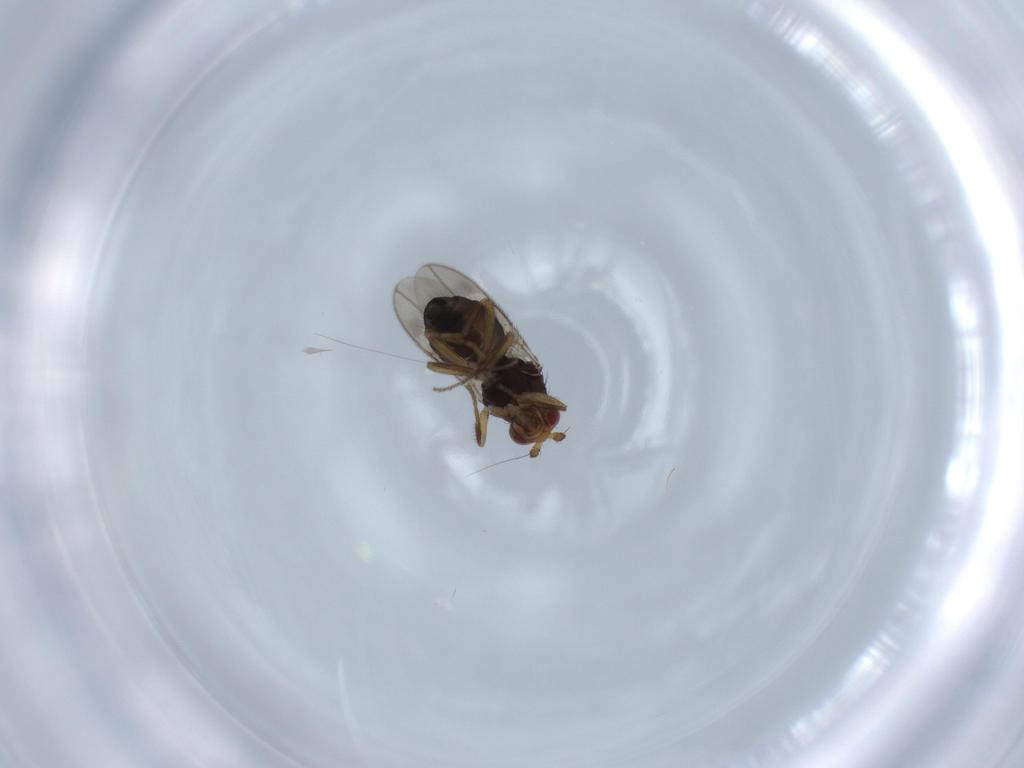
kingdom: Animalia
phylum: Arthropoda
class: Insecta
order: Diptera
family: Sphaeroceridae
